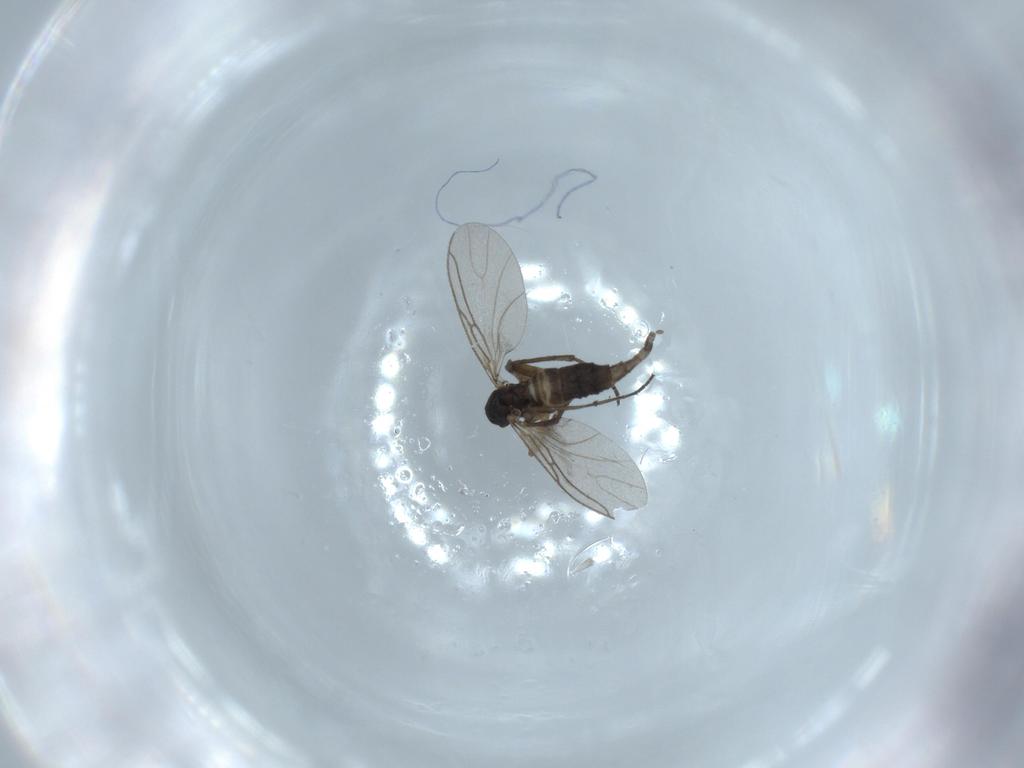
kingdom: Animalia
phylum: Arthropoda
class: Insecta
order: Diptera
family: Sciaridae
